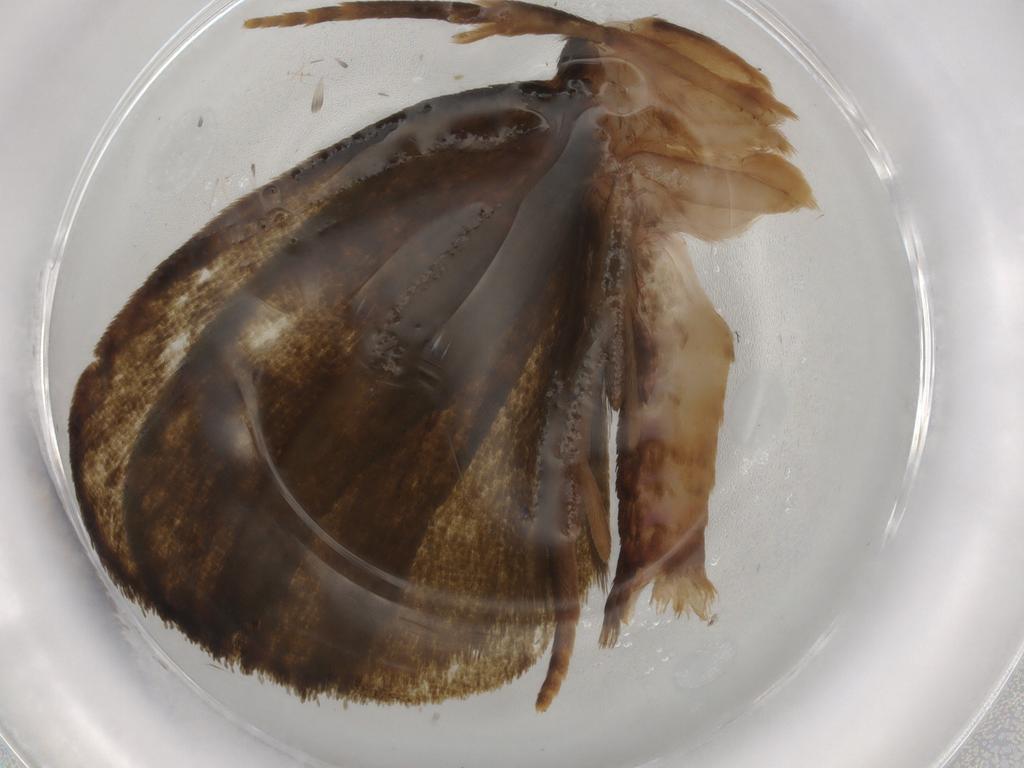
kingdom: Animalia
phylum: Arthropoda
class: Insecta
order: Lepidoptera
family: Geometridae
